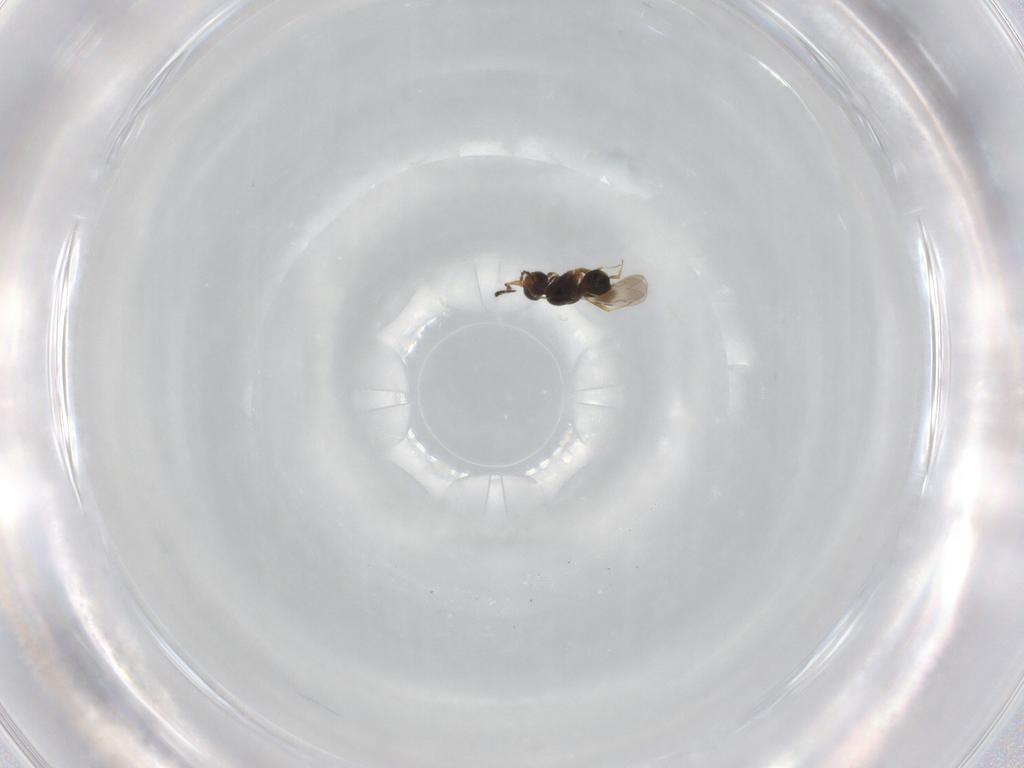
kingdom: Animalia
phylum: Arthropoda
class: Insecta
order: Hymenoptera
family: Ceraphronidae
